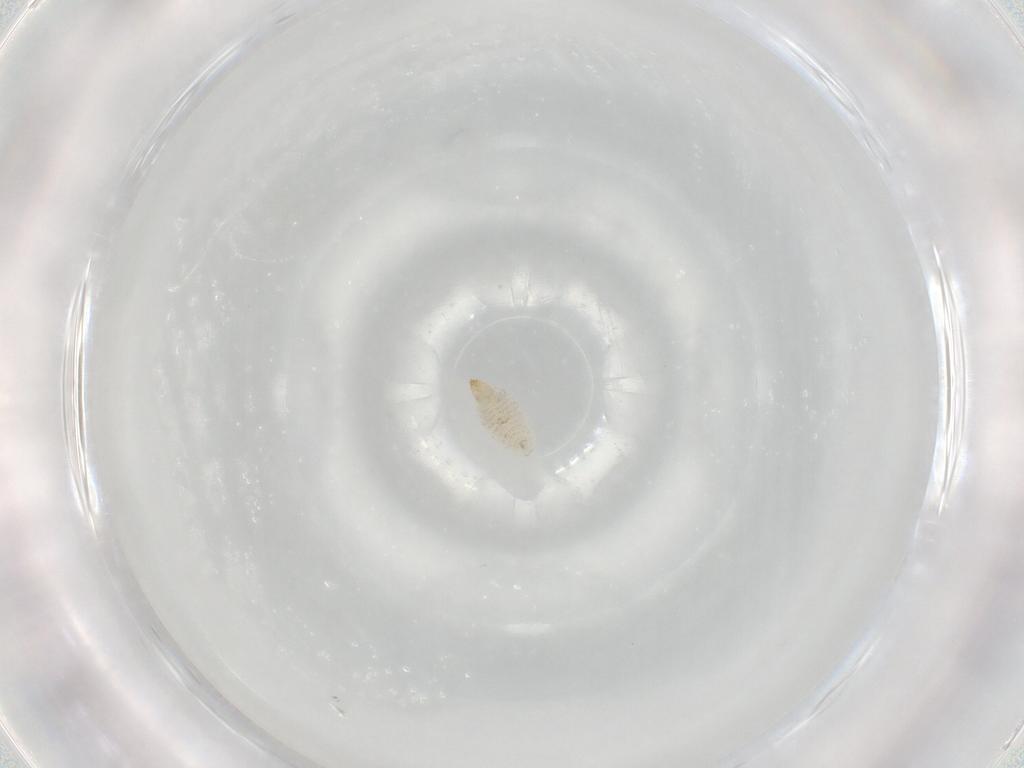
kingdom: Animalia
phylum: Arthropoda
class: Insecta
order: Diptera
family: Stratiomyidae
